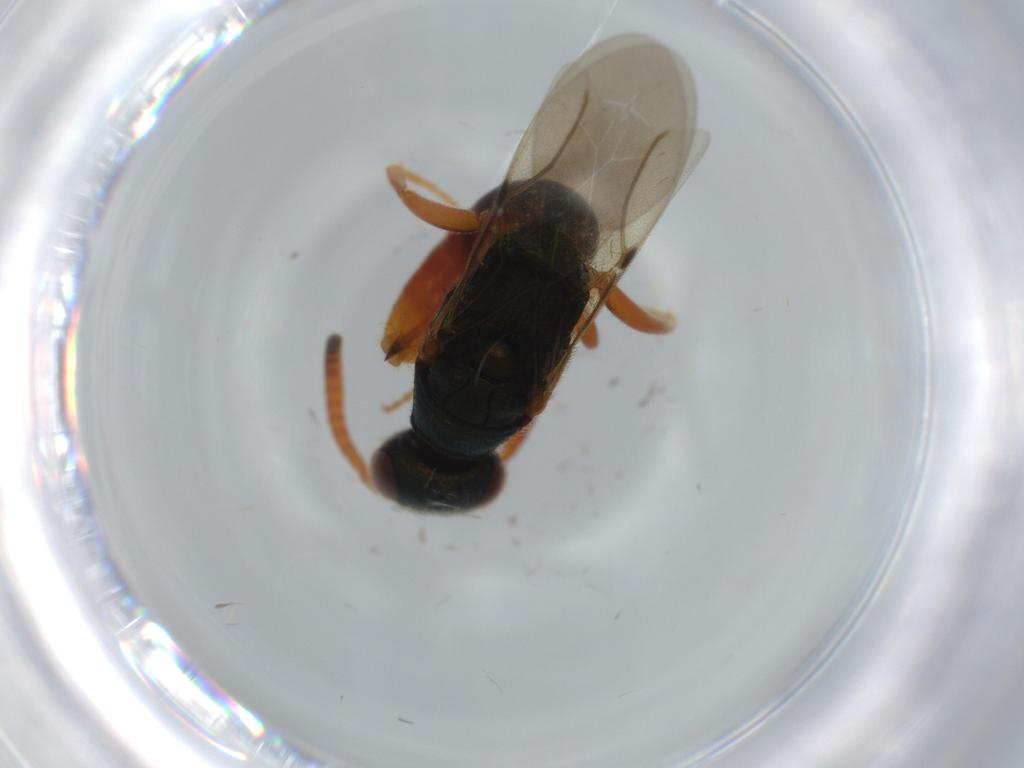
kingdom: Animalia
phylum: Arthropoda
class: Insecta
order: Hymenoptera
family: Bethylidae
